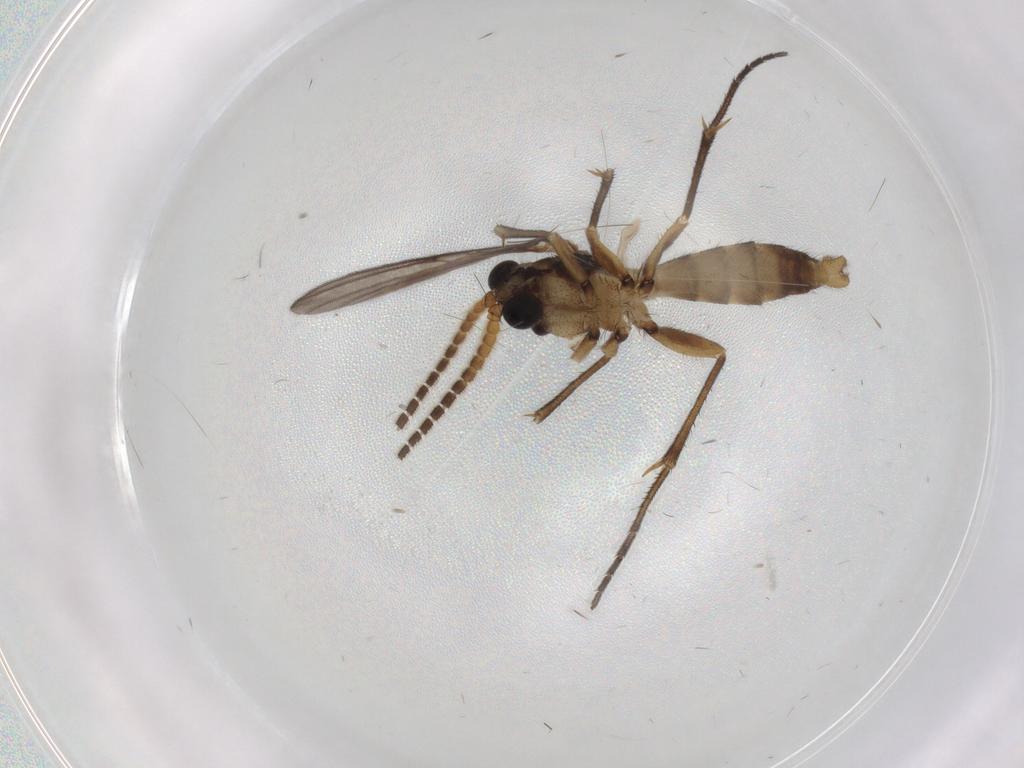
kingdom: Animalia
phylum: Arthropoda
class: Insecta
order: Diptera
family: Mycetophilidae
